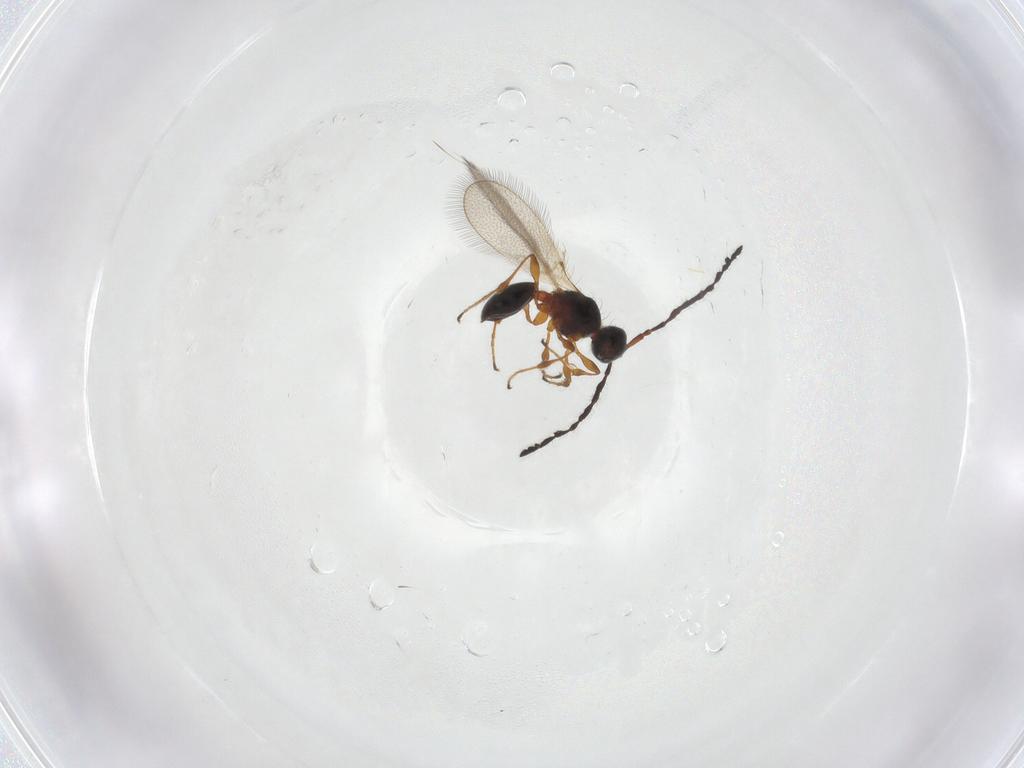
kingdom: Animalia
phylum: Arthropoda
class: Insecta
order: Hymenoptera
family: Diapriidae
